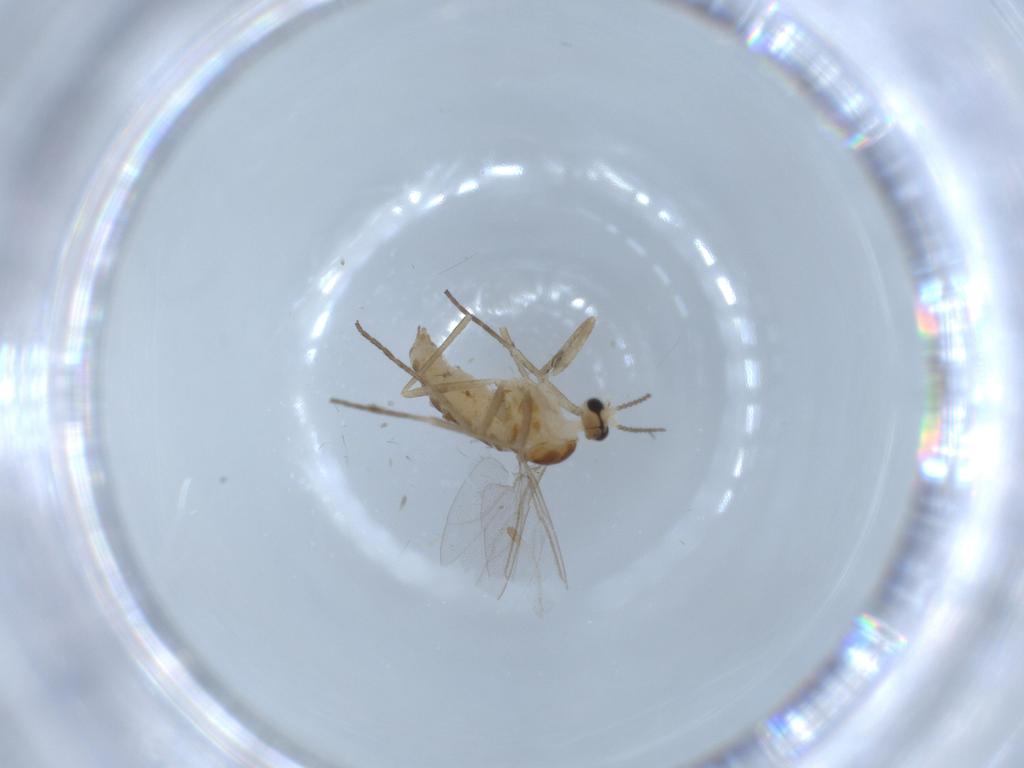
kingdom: Animalia
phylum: Arthropoda
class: Insecta
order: Diptera
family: Cecidomyiidae
